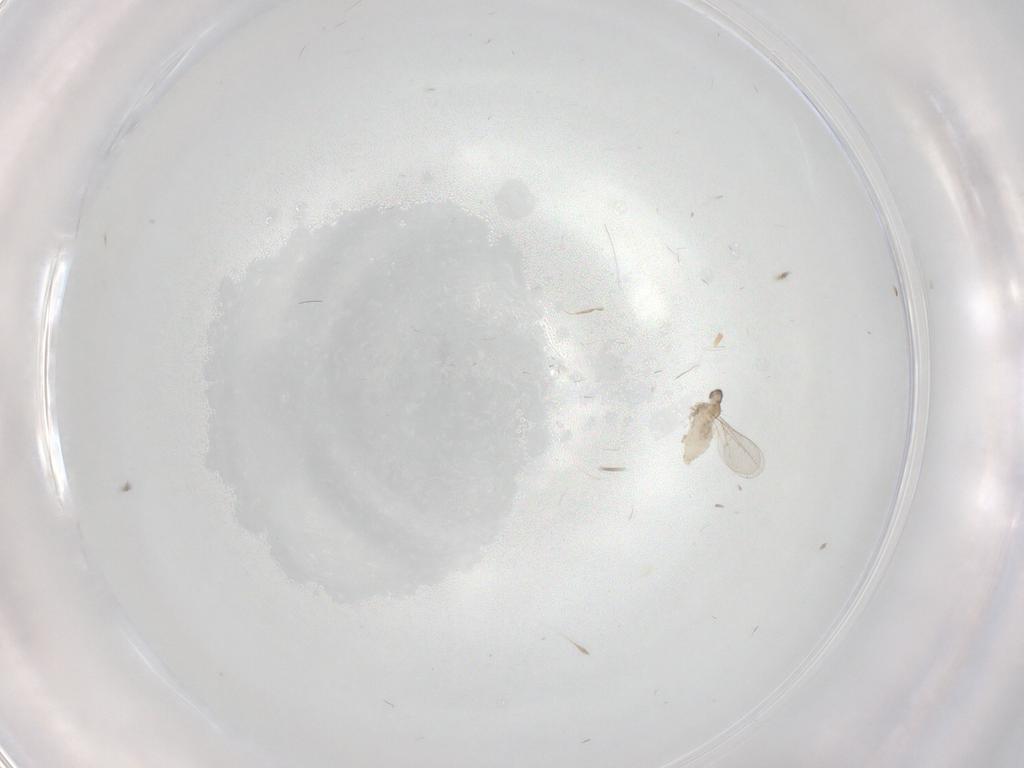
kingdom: Animalia
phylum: Arthropoda
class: Insecta
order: Diptera
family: Cecidomyiidae
